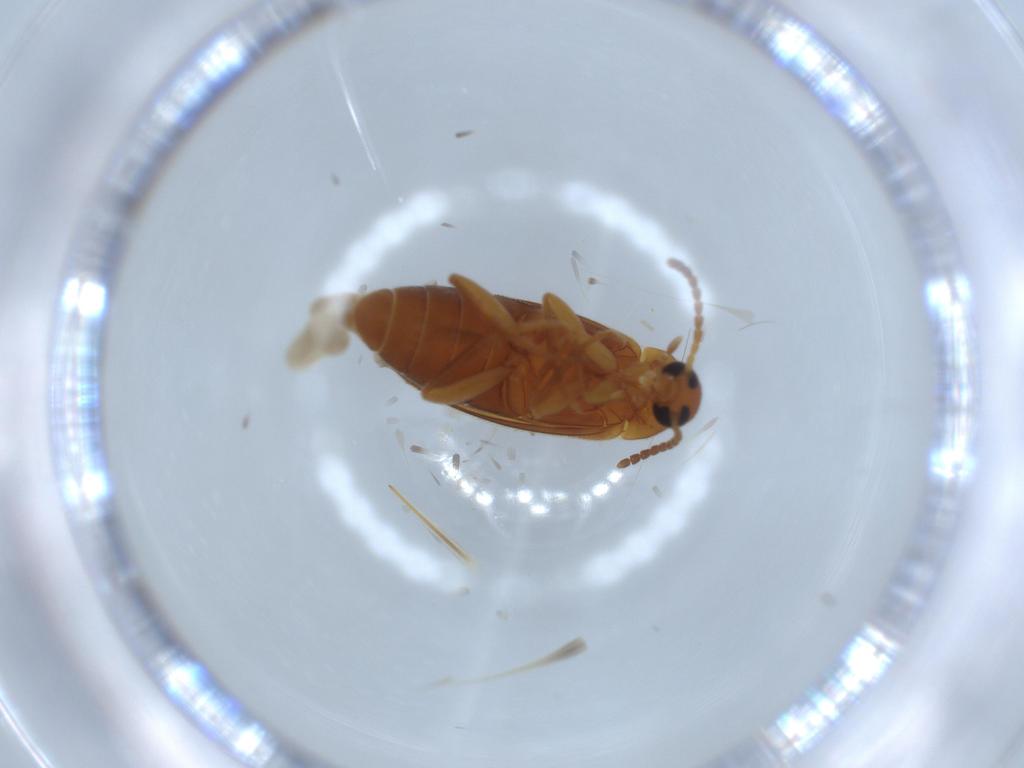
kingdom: Animalia
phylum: Arthropoda
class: Insecta
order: Coleoptera
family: Scraptiidae
